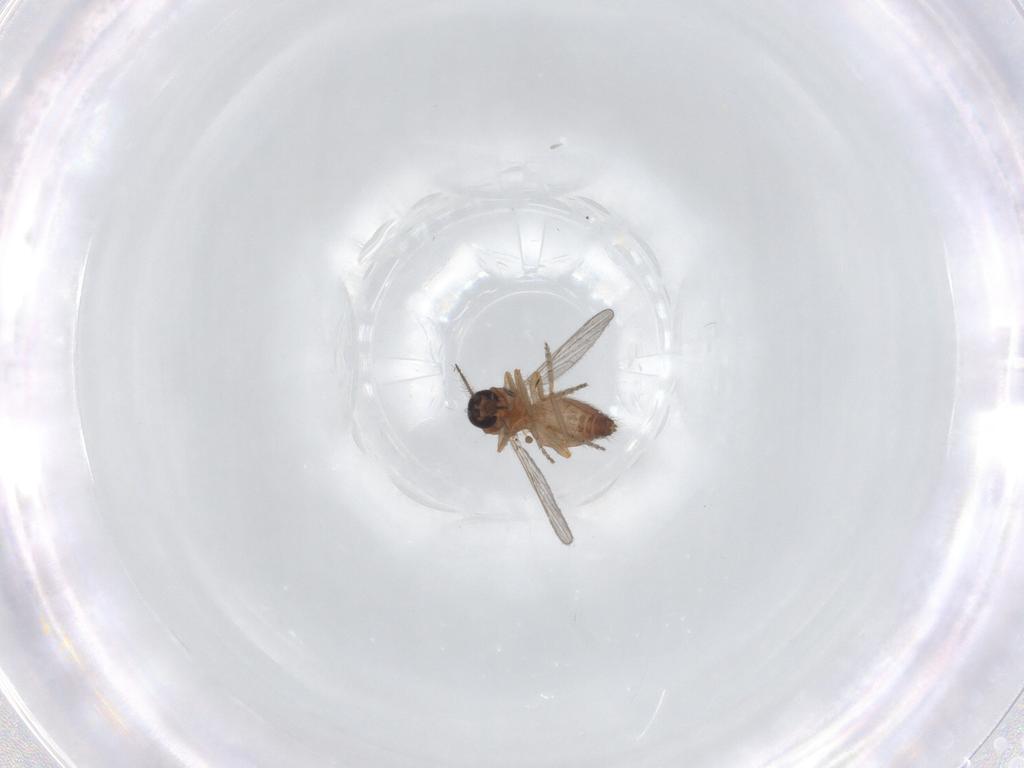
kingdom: Animalia
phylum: Arthropoda
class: Insecta
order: Diptera
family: Ceratopogonidae
